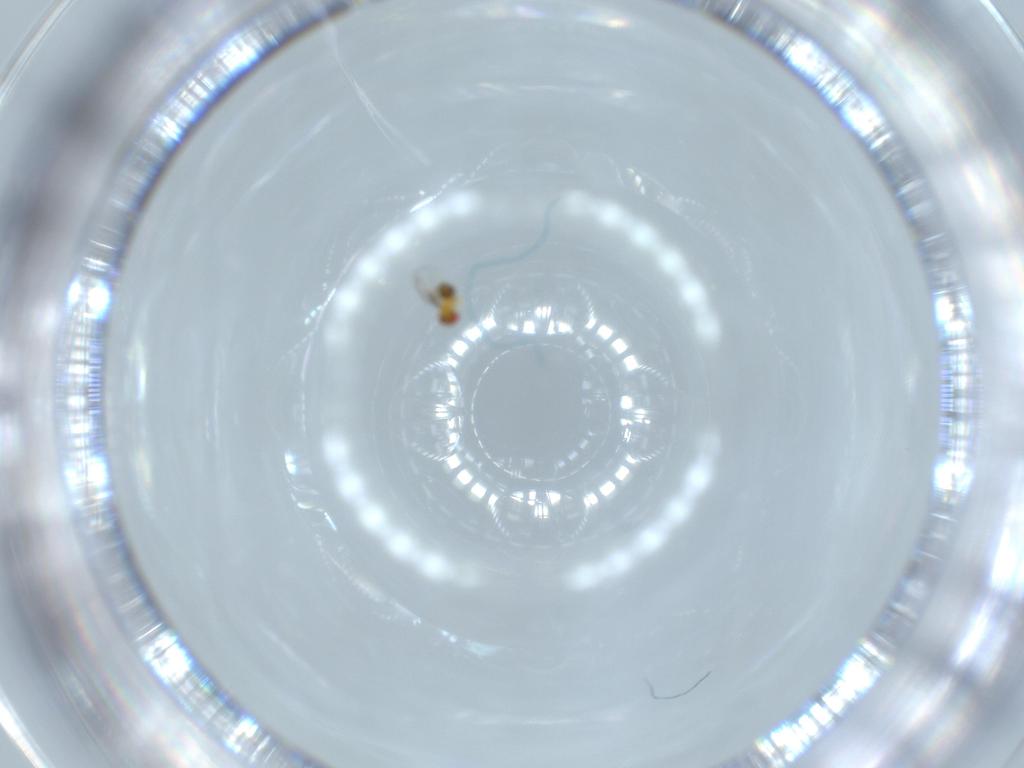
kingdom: Animalia
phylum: Arthropoda
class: Insecta
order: Hymenoptera
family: Trichogrammatidae
